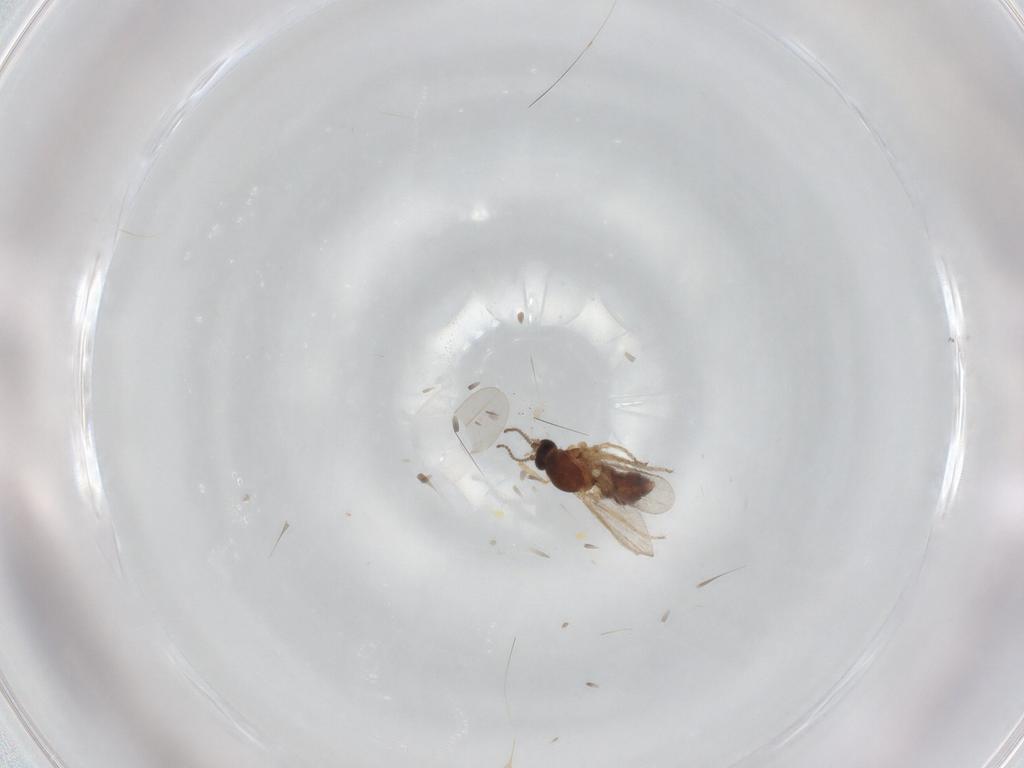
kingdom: Animalia
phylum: Arthropoda
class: Insecta
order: Diptera
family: Ceratopogonidae
